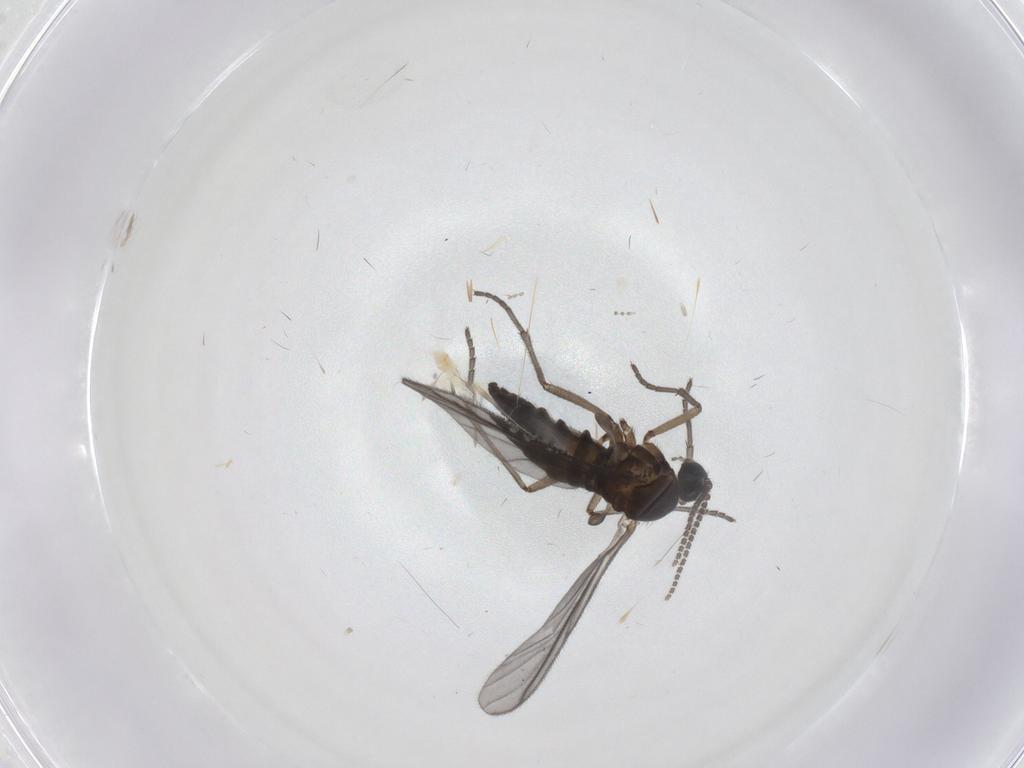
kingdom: Animalia
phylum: Arthropoda
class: Insecta
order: Diptera
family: Sciaridae
